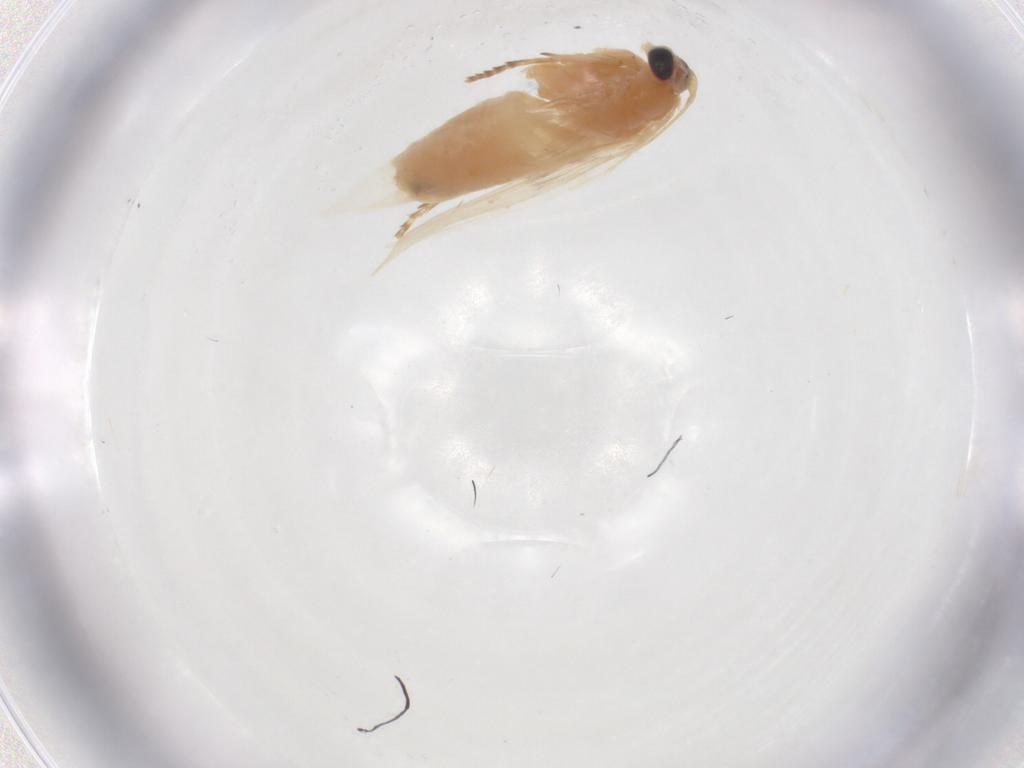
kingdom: Animalia
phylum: Arthropoda
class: Insecta
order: Lepidoptera
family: Nepticulidae
